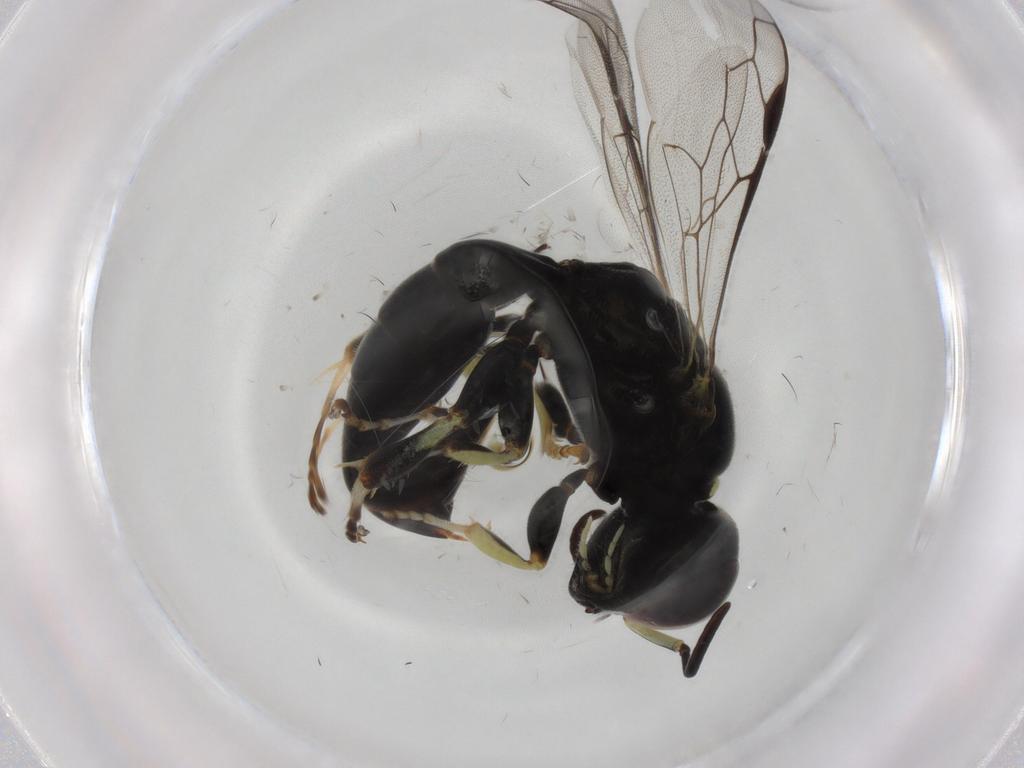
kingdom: Animalia
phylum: Arthropoda
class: Insecta
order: Hymenoptera
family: Crabronidae
